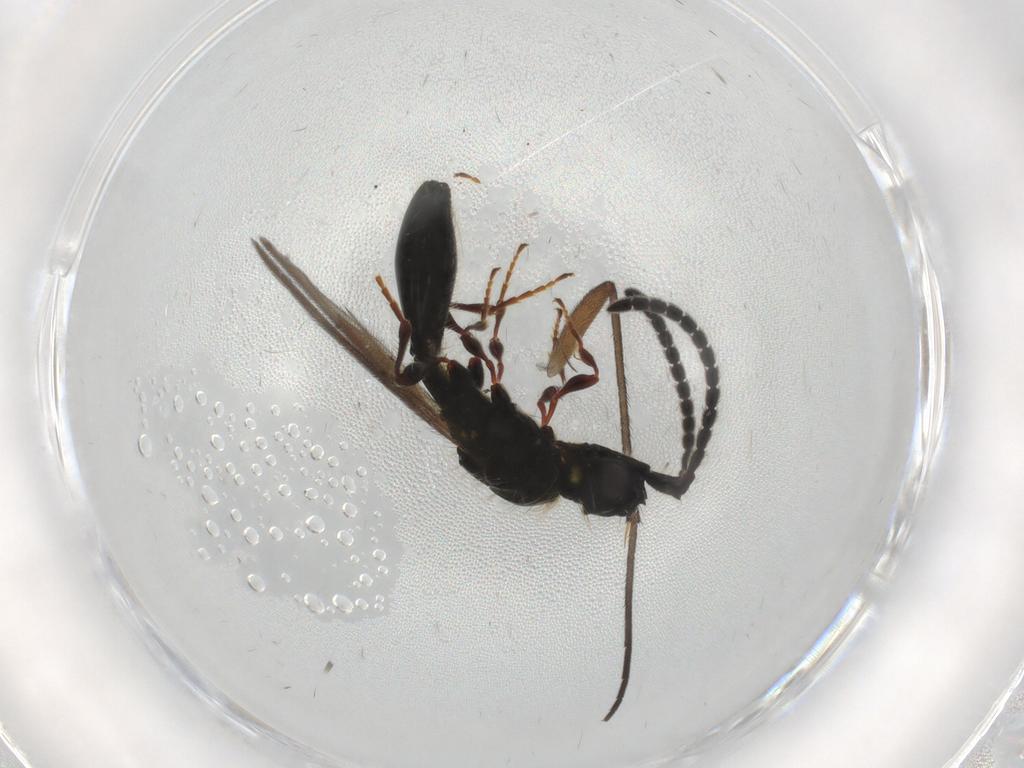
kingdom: Animalia
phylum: Arthropoda
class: Insecta
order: Hymenoptera
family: Diapriidae
